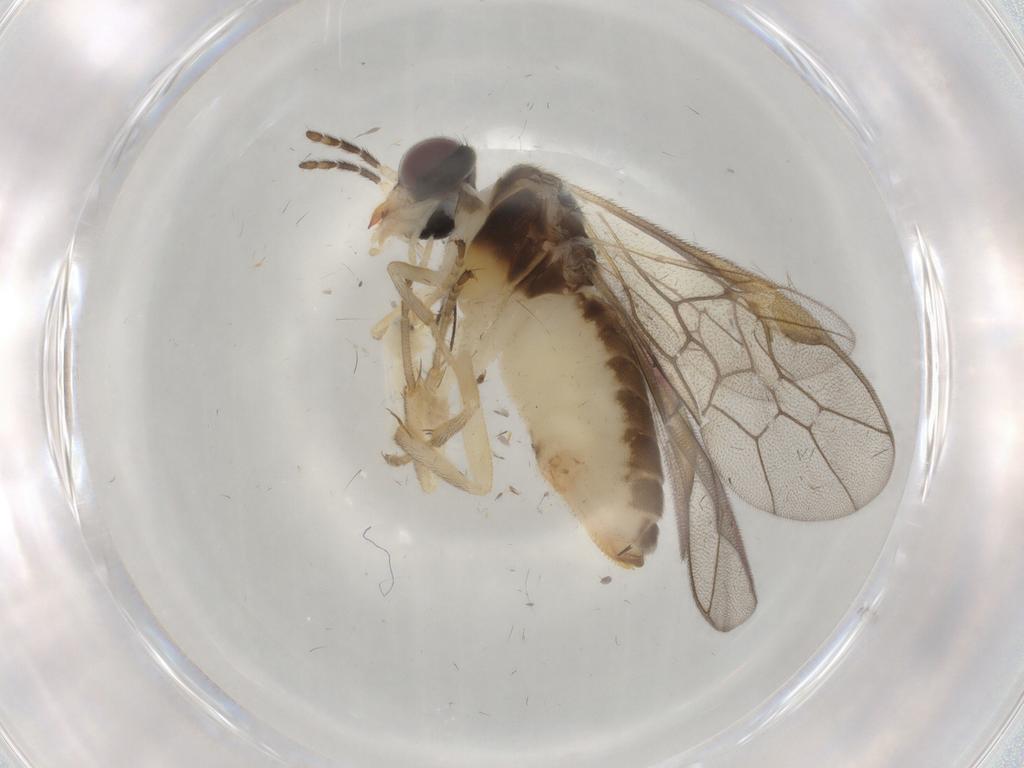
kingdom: Animalia
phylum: Arthropoda
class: Insecta
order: Hymenoptera
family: Pergidae
